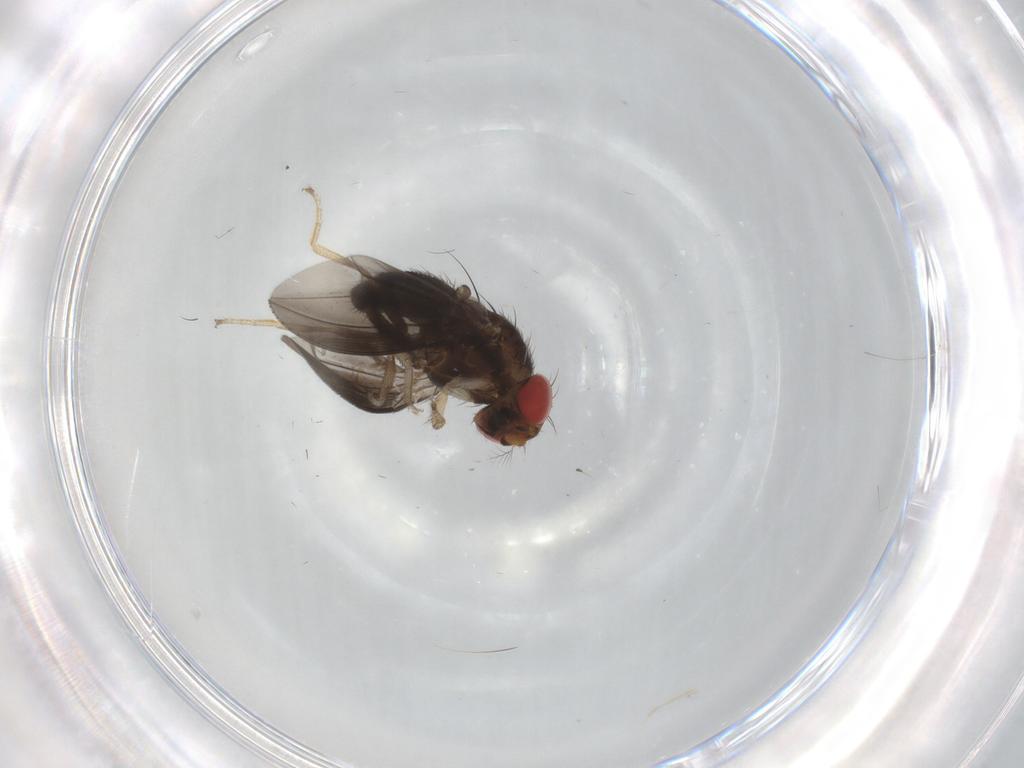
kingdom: Animalia
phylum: Arthropoda
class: Insecta
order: Diptera
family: Drosophilidae
